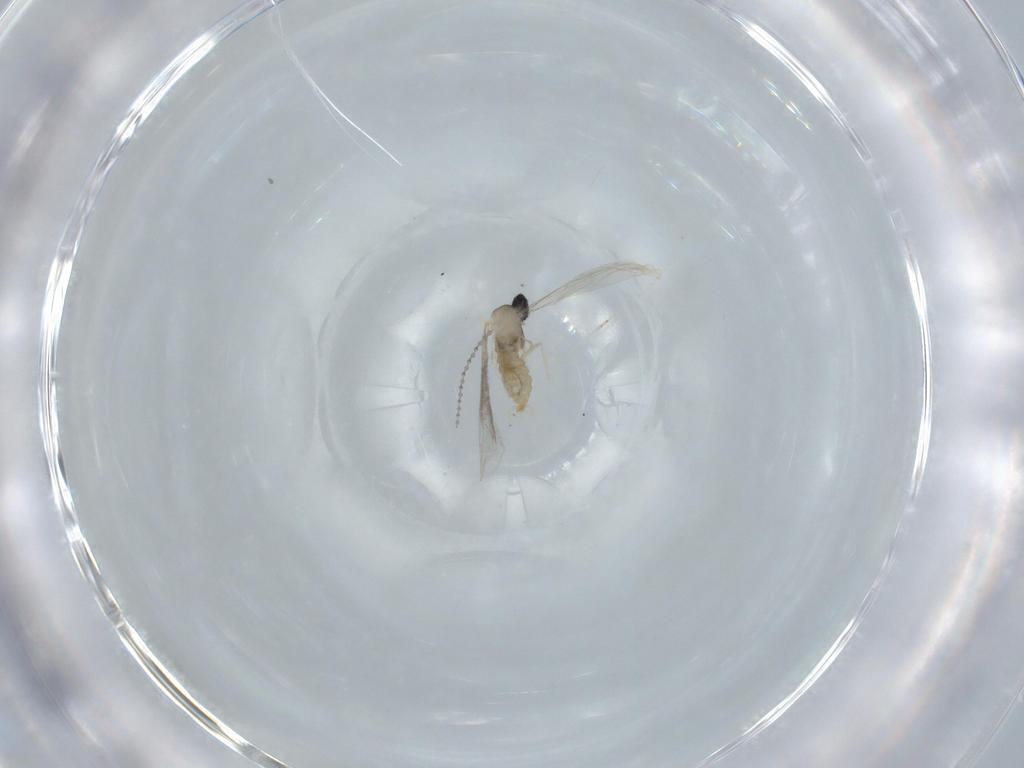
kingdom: Animalia
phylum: Arthropoda
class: Insecta
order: Diptera
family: Cecidomyiidae
